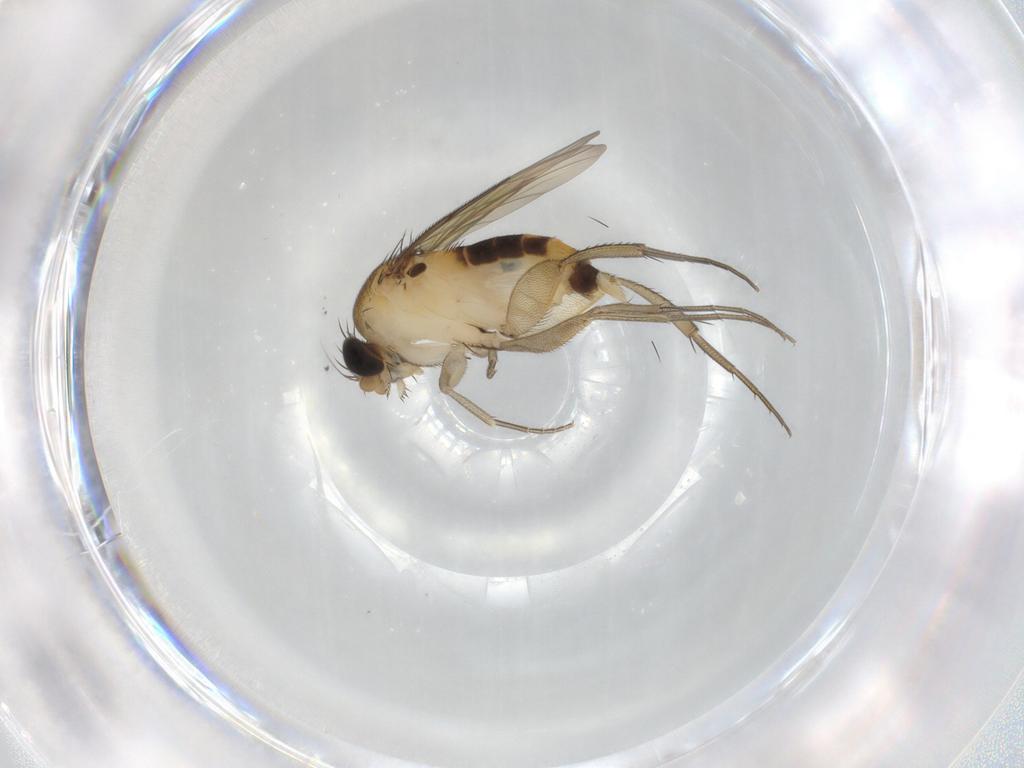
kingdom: Animalia
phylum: Arthropoda
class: Insecta
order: Diptera
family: Phoridae
